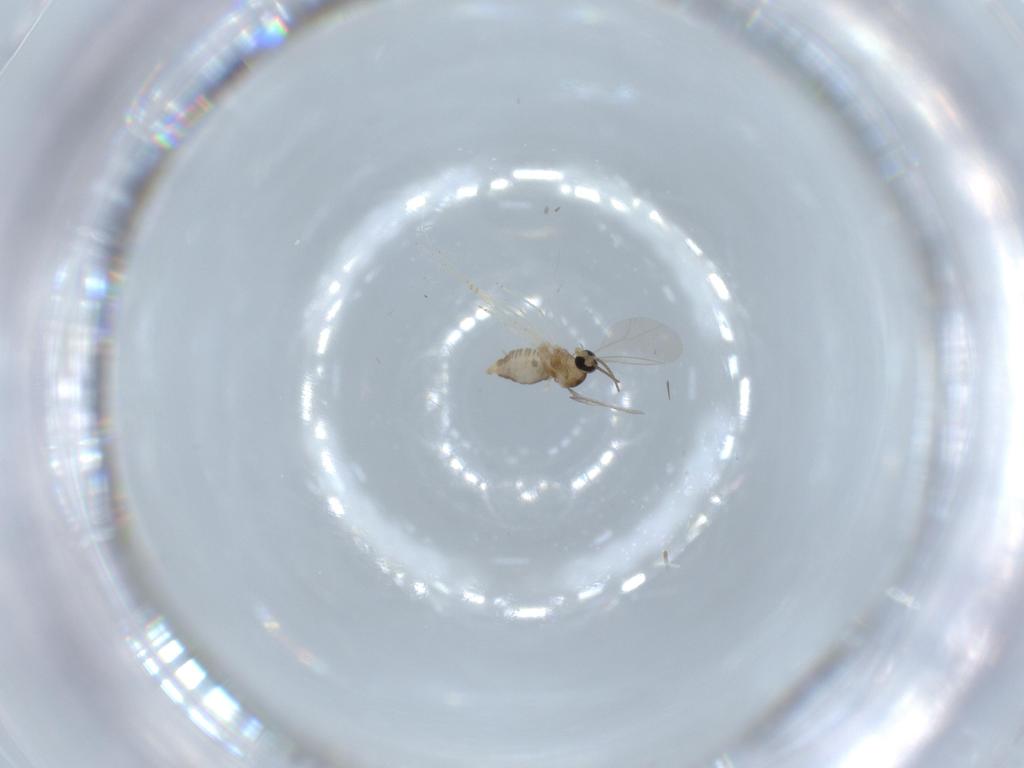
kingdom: Animalia
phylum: Arthropoda
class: Insecta
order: Diptera
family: Cecidomyiidae
